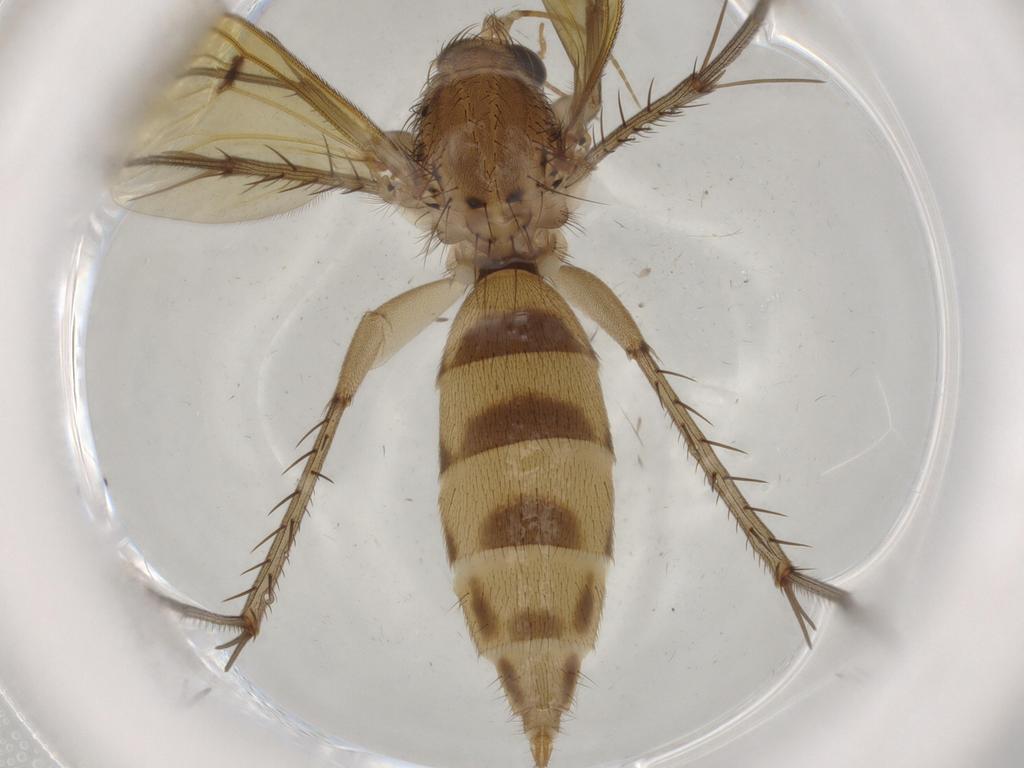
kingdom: Animalia
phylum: Arthropoda
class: Insecta
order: Diptera
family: Mycetophilidae
